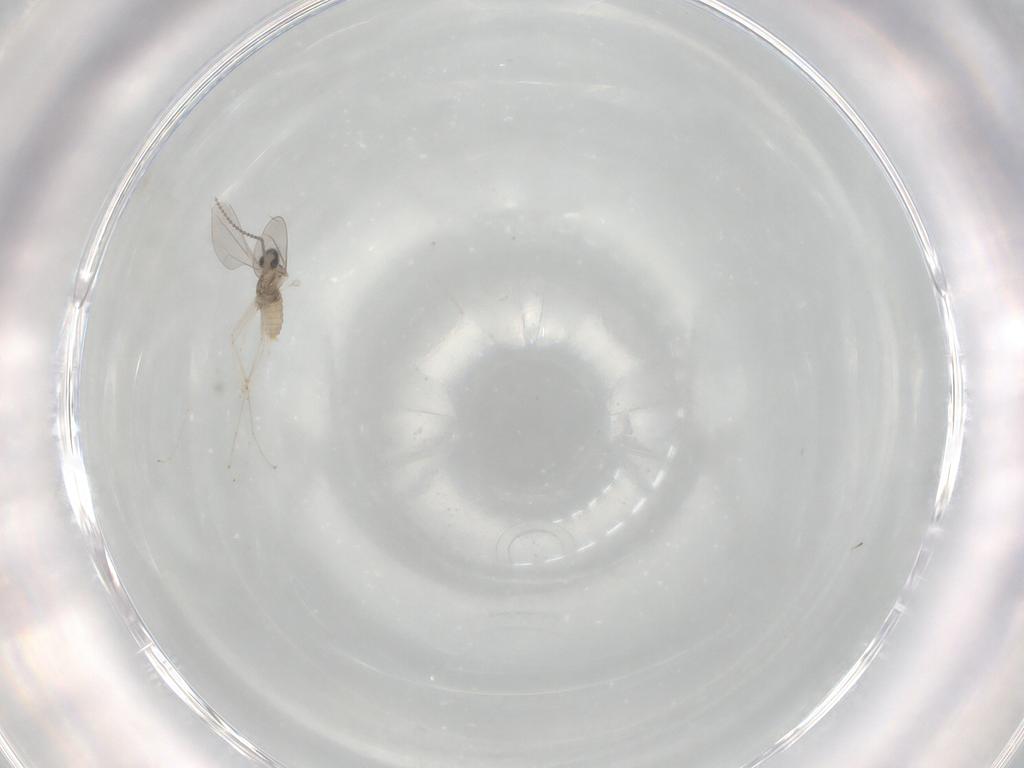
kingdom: Animalia
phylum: Arthropoda
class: Insecta
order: Diptera
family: Cecidomyiidae
